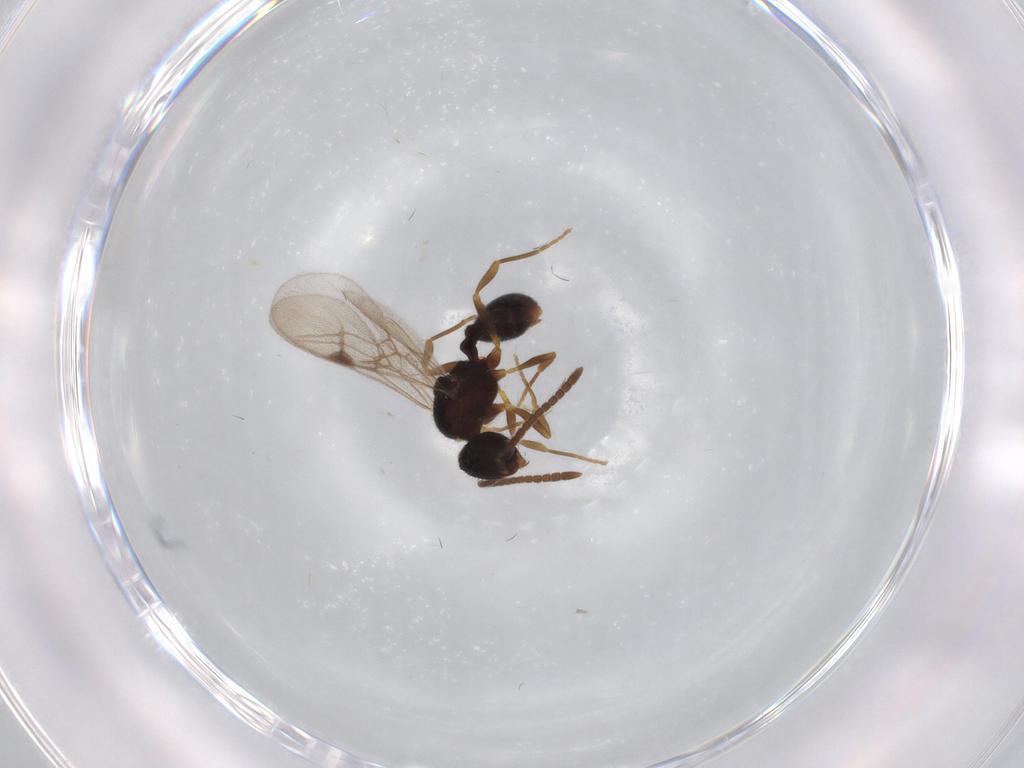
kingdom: Animalia
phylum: Arthropoda
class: Insecta
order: Hymenoptera
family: Formicidae
